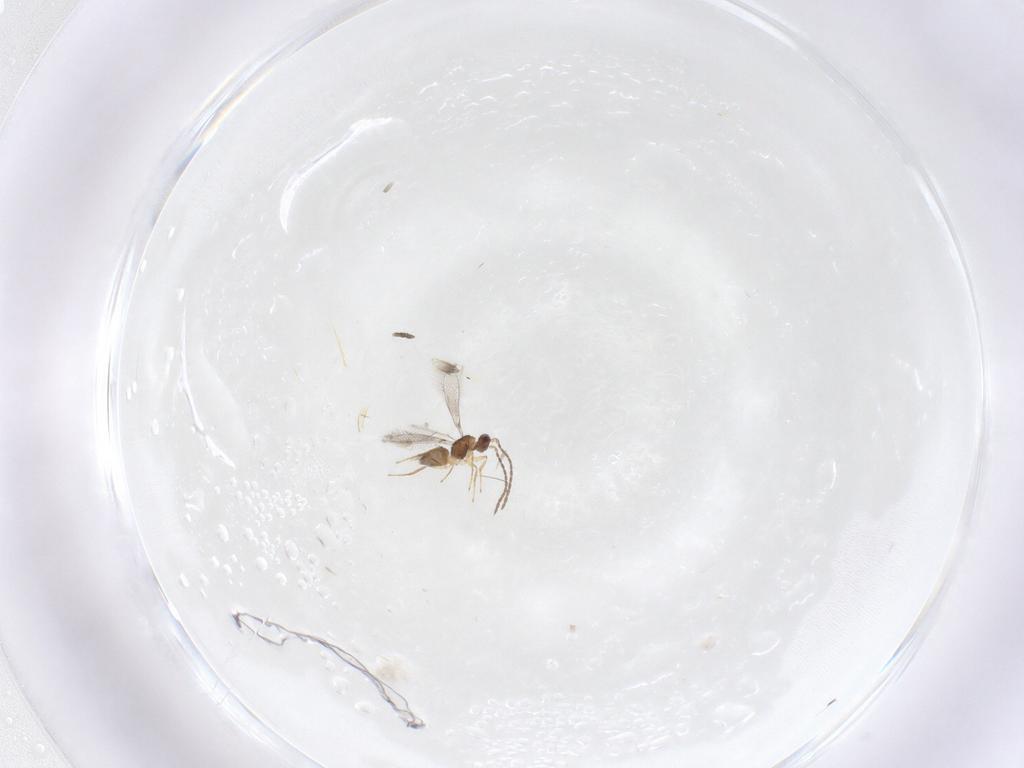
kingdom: Animalia
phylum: Arthropoda
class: Insecta
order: Hymenoptera
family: Mymaridae
